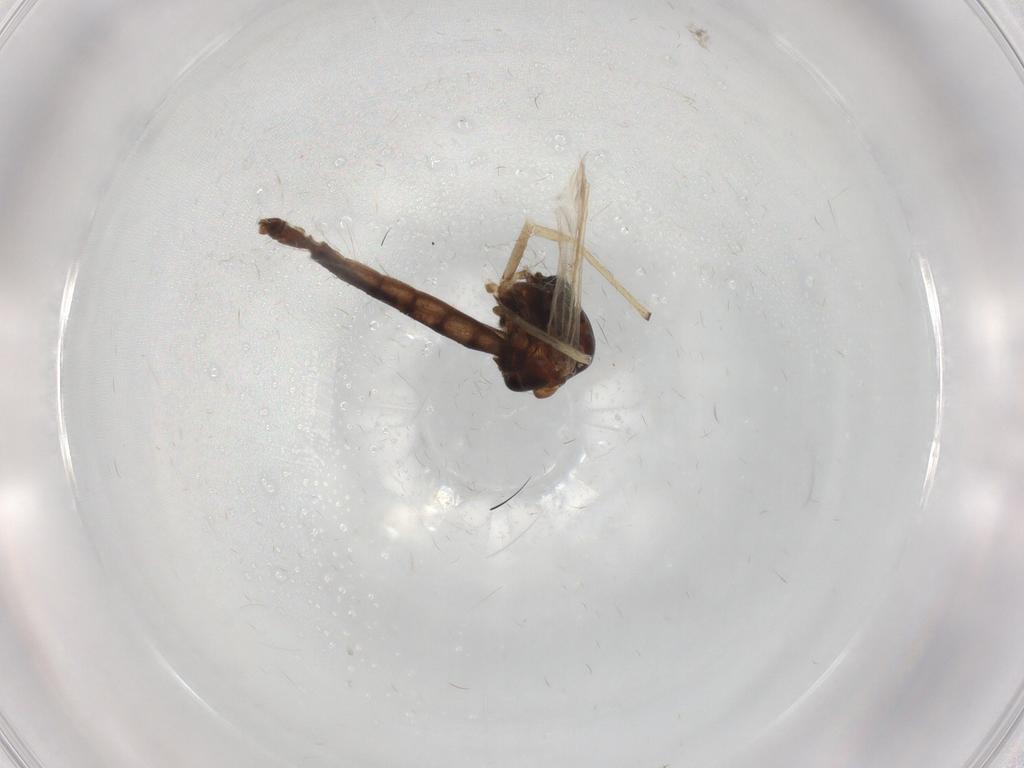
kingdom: Animalia
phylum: Arthropoda
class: Insecta
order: Diptera
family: Chironomidae
